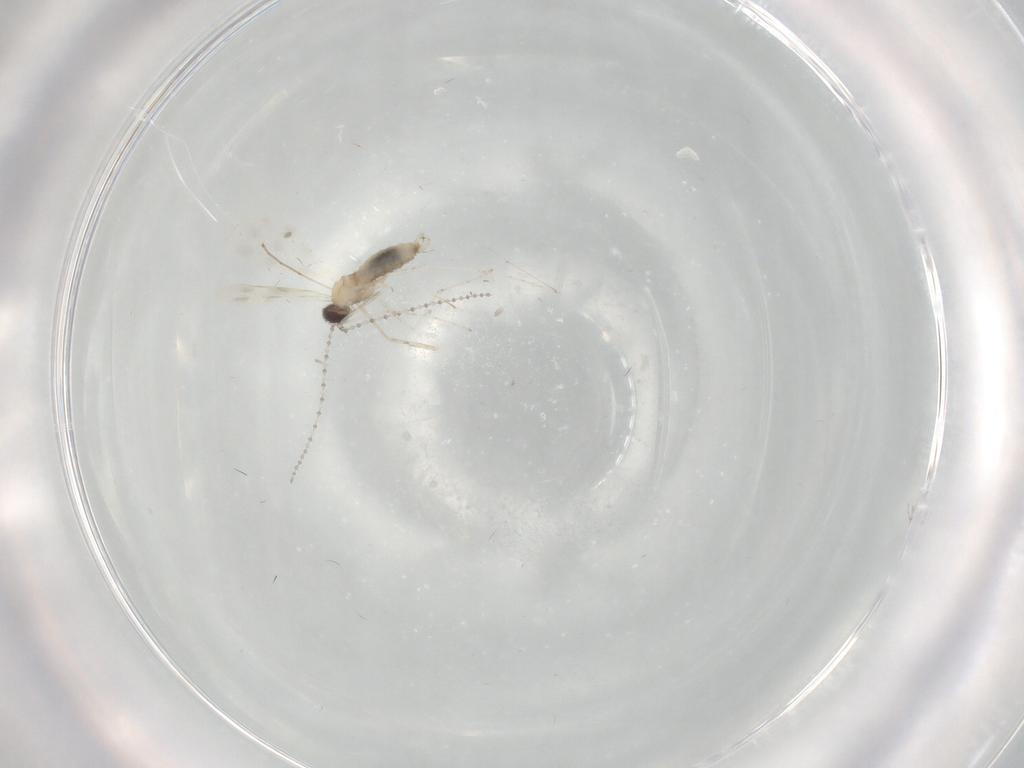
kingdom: Animalia
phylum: Arthropoda
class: Insecta
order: Diptera
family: Cecidomyiidae
